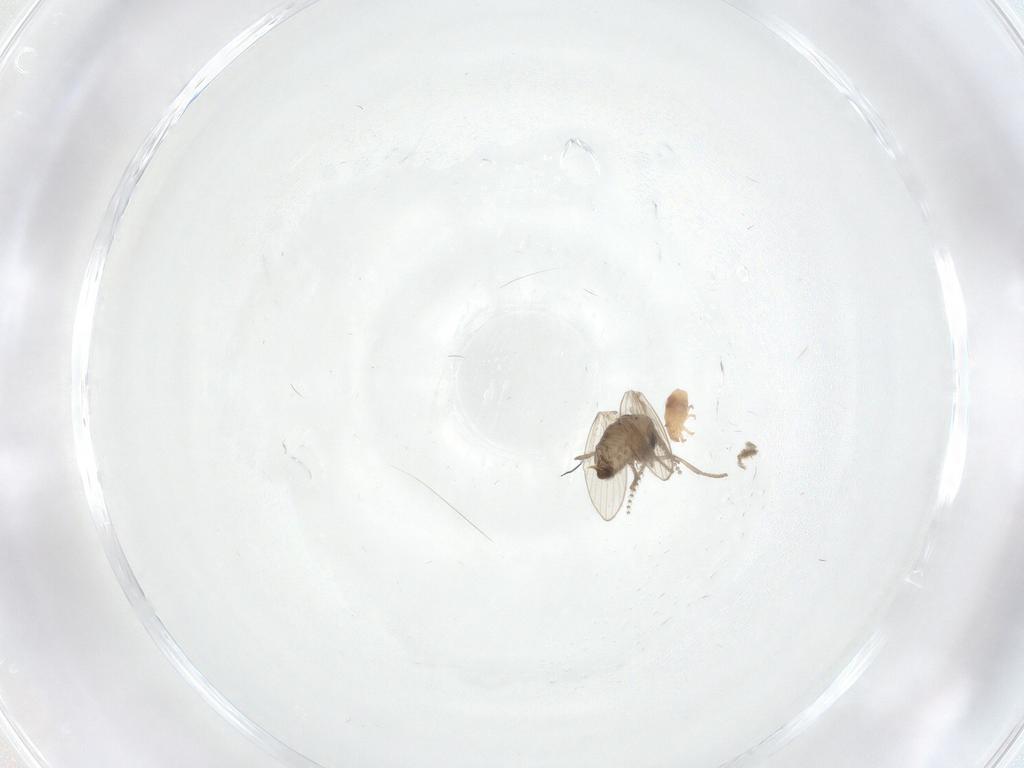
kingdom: Animalia
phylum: Arthropoda
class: Insecta
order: Diptera
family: Psychodidae
